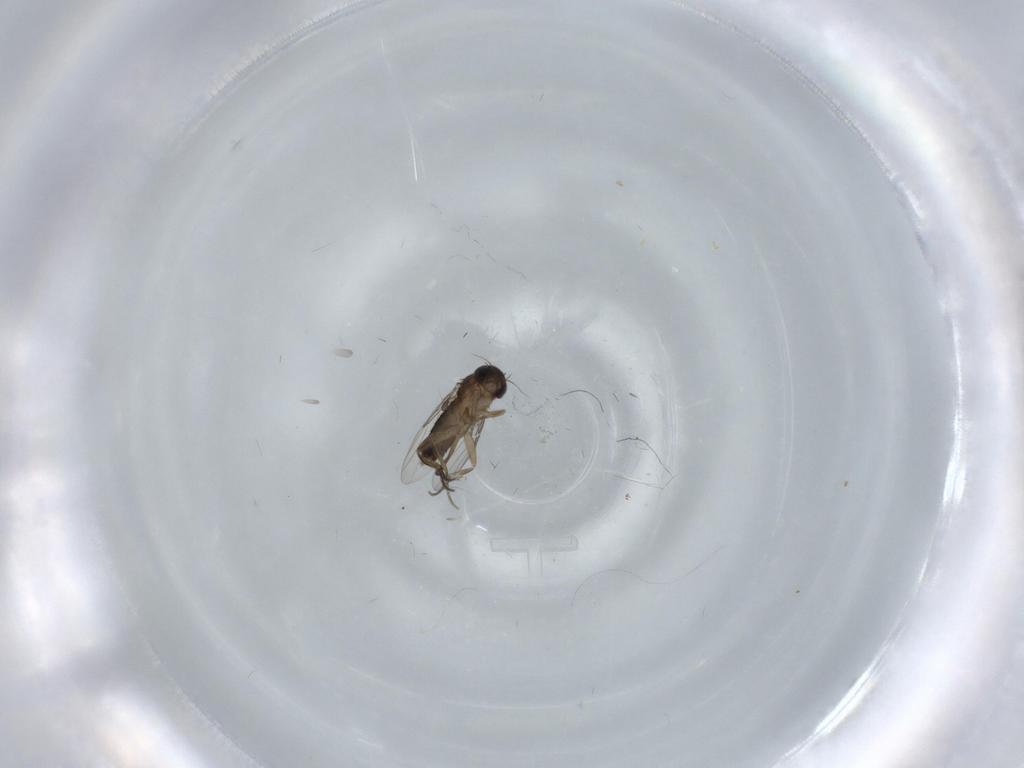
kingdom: Animalia
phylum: Arthropoda
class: Insecta
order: Diptera
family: Phoridae
